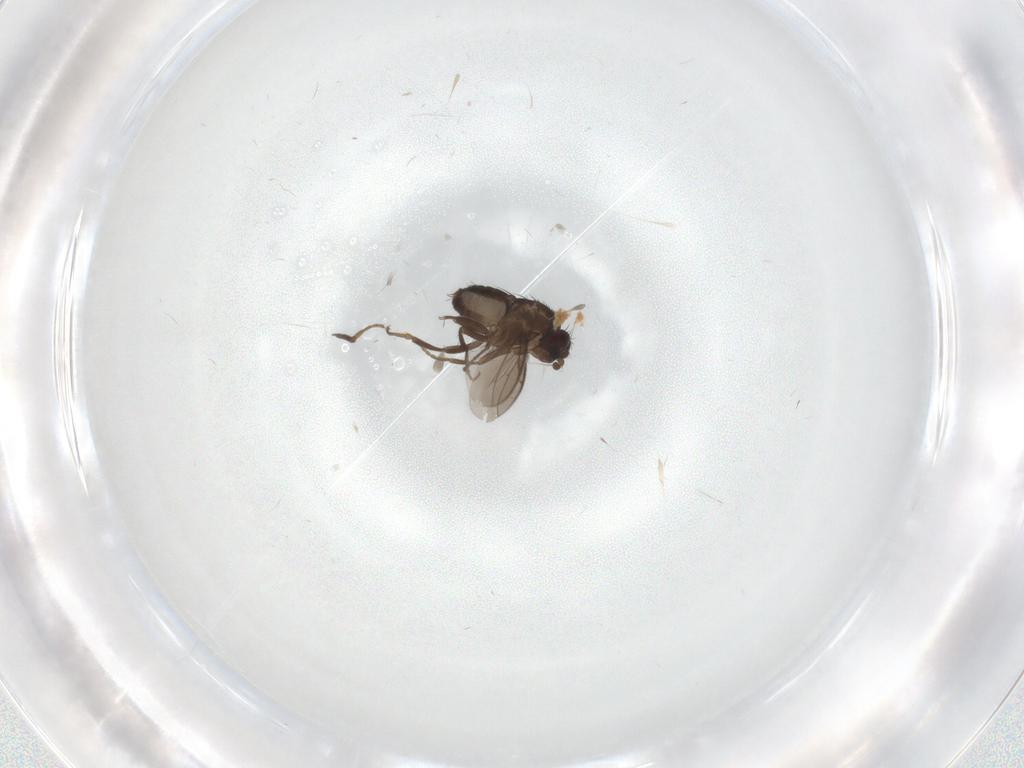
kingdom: Animalia
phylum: Arthropoda
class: Insecta
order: Diptera
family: Sphaeroceridae
